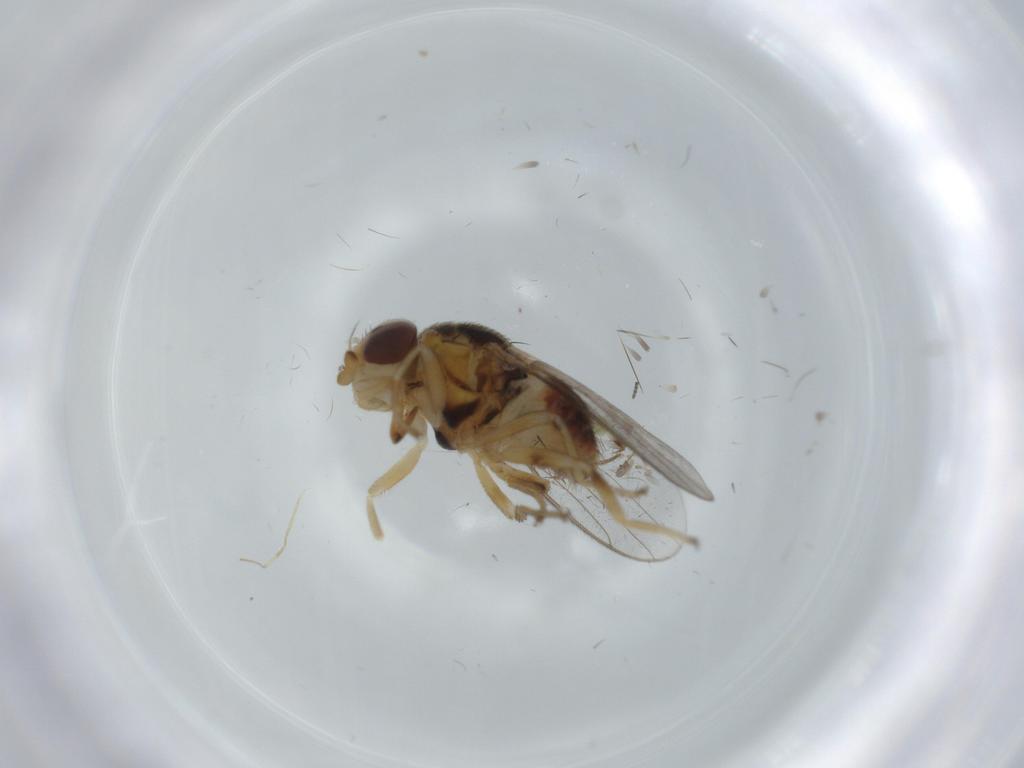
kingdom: Animalia
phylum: Arthropoda
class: Insecta
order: Diptera
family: Chloropidae
